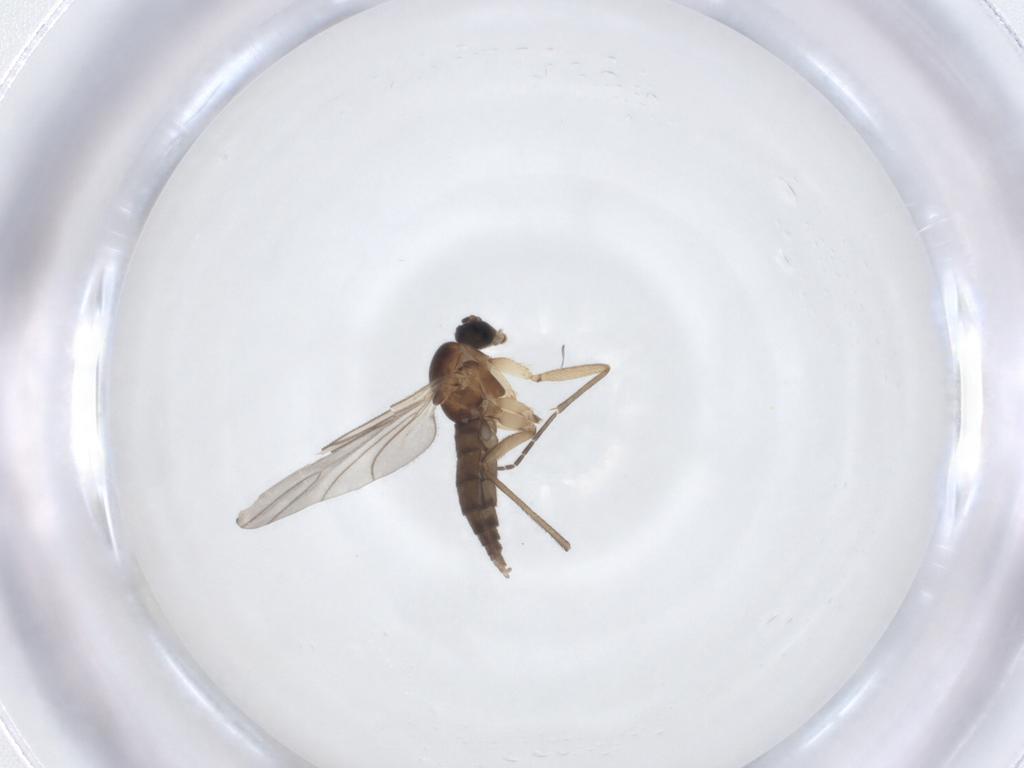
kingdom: Animalia
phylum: Arthropoda
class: Insecta
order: Diptera
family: Sciaridae
